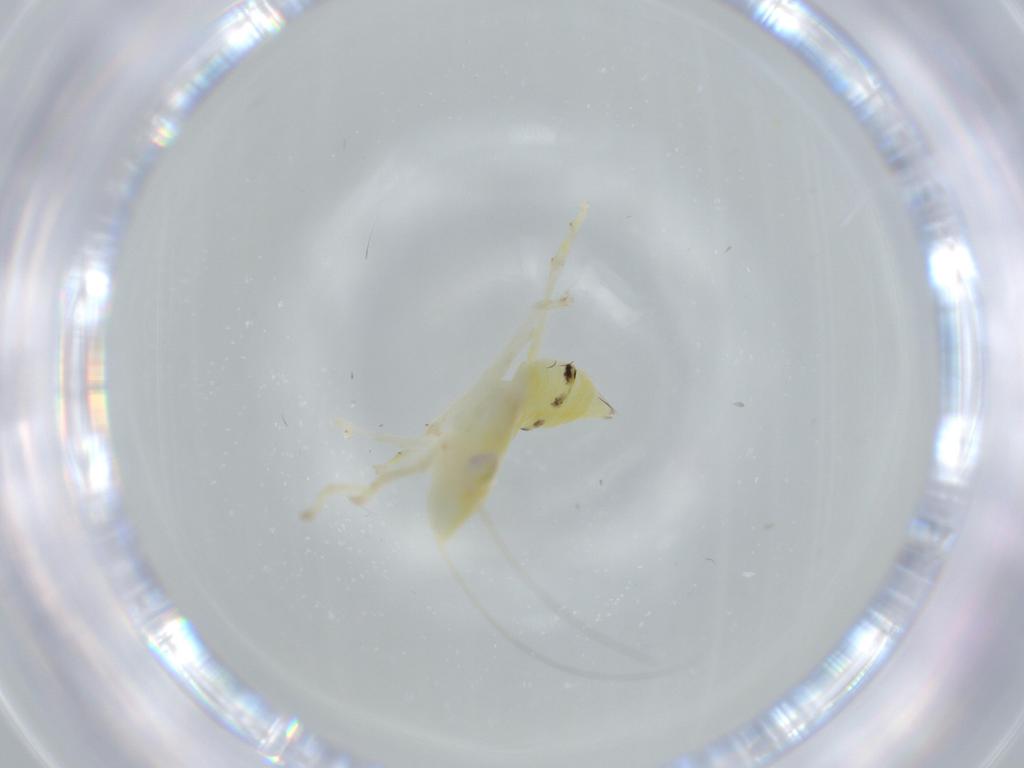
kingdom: Animalia
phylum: Arthropoda
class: Insecta
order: Hemiptera
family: Cicadellidae
